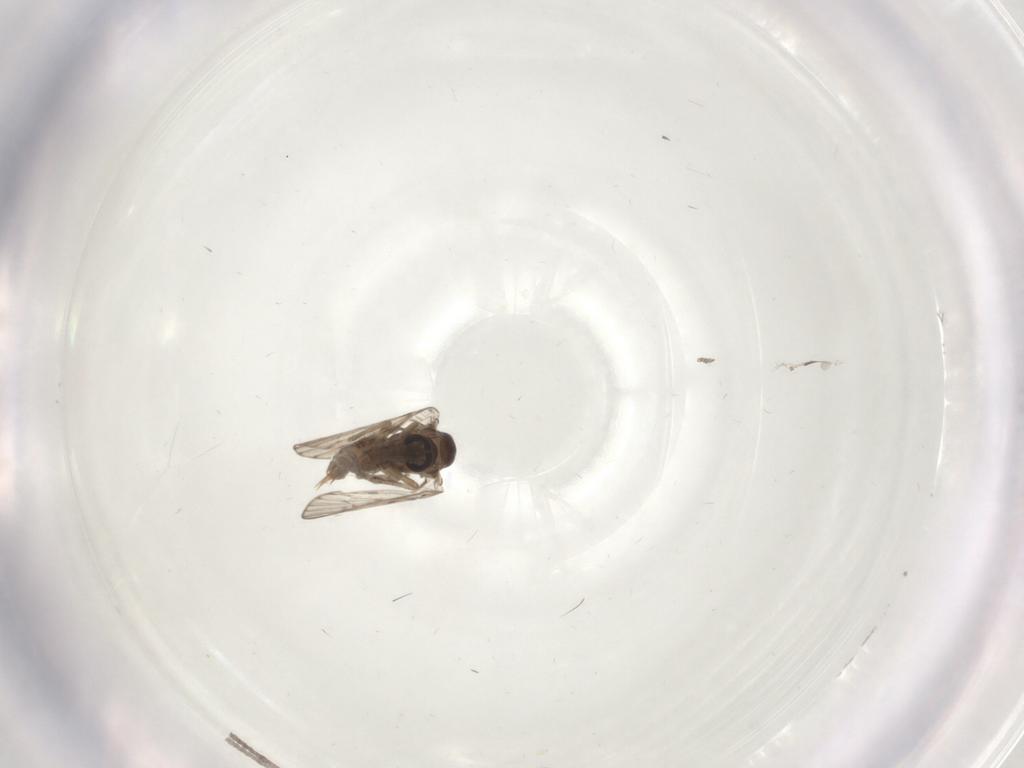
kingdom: Animalia
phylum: Arthropoda
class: Insecta
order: Diptera
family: Psychodidae
